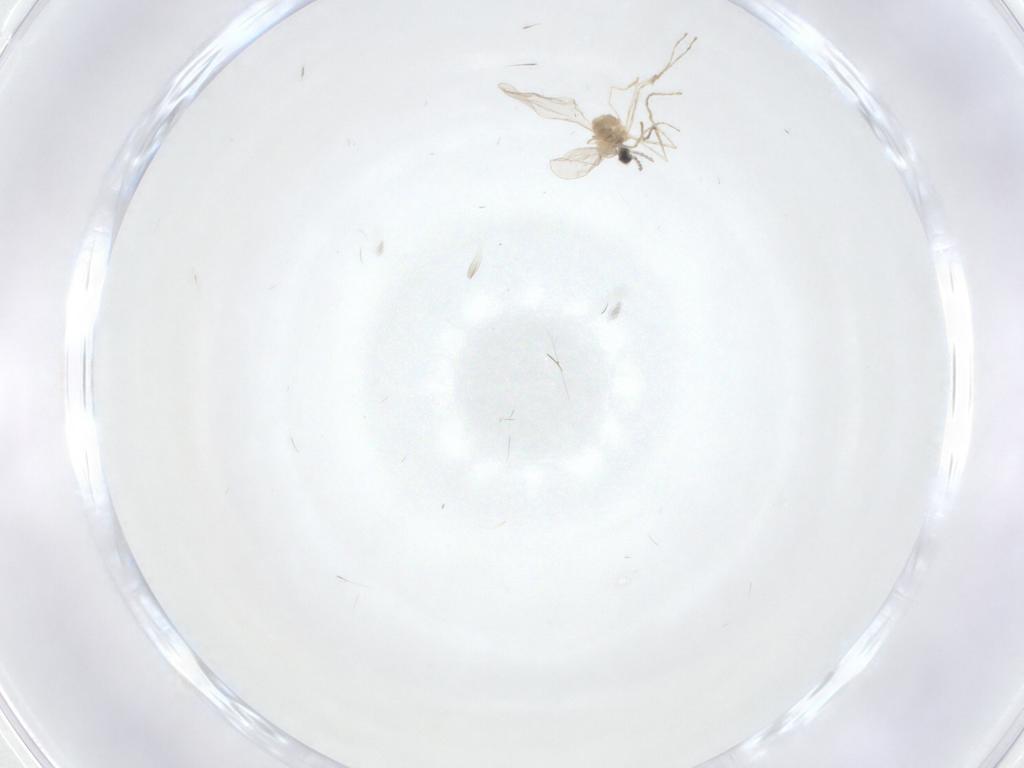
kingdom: Animalia
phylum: Arthropoda
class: Insecta
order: Diptera
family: Cecidomyiidae
